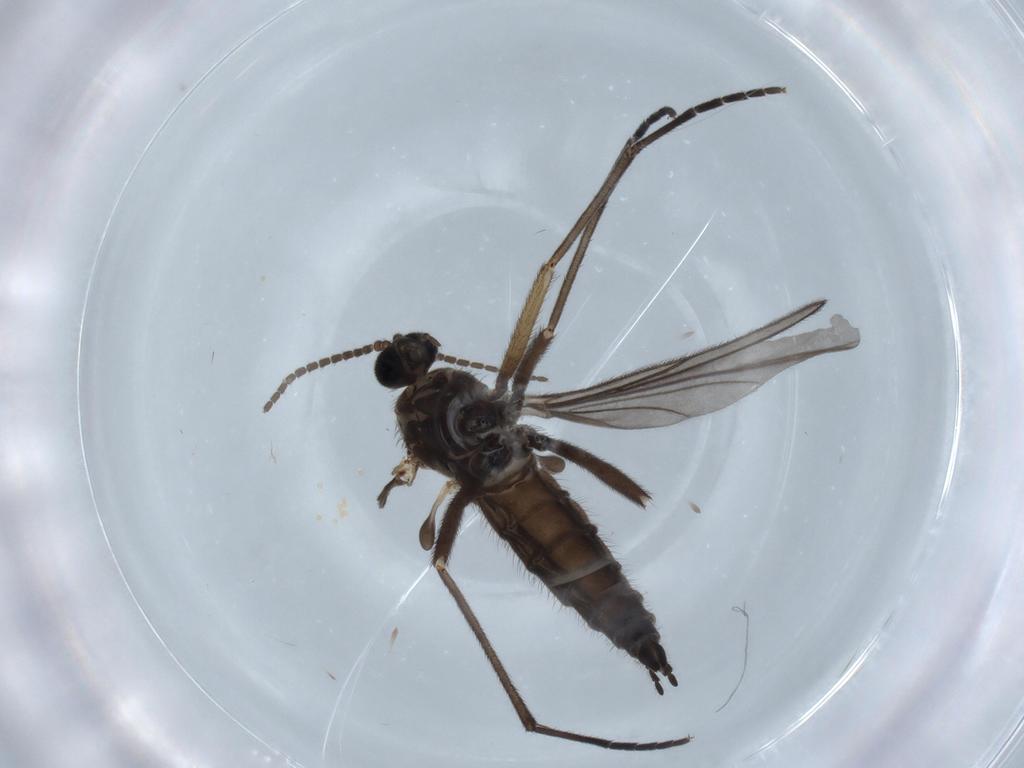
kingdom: Animalia
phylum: Arthropoda
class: Insecta
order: Diptera
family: Sciaridae
